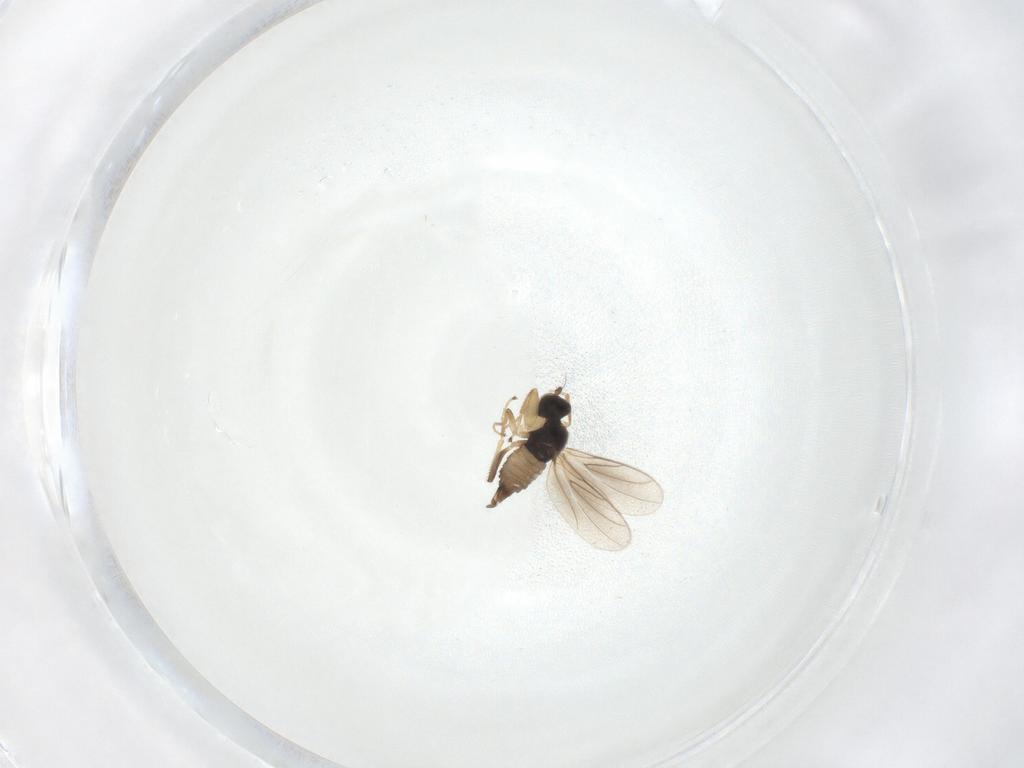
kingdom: Animalia
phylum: Arthropoda
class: Insecta
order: Diptera
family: Hybotidae
